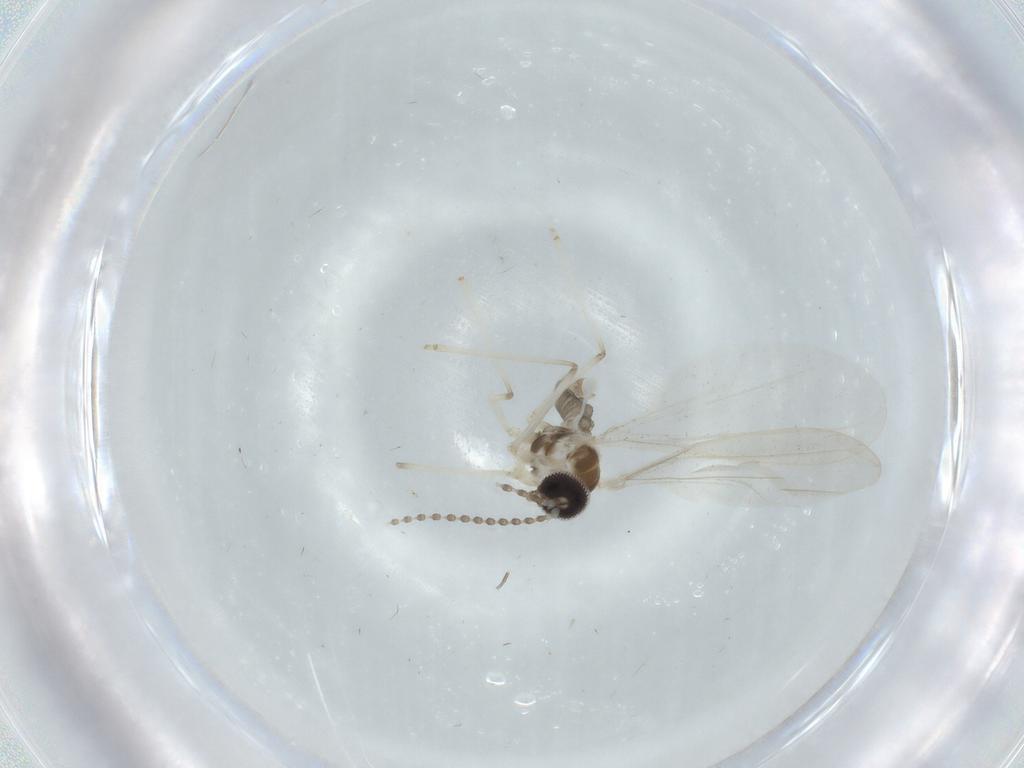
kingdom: Animalia
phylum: Arthropoda
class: Insecta
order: Diptera
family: Cecidomyiidae
